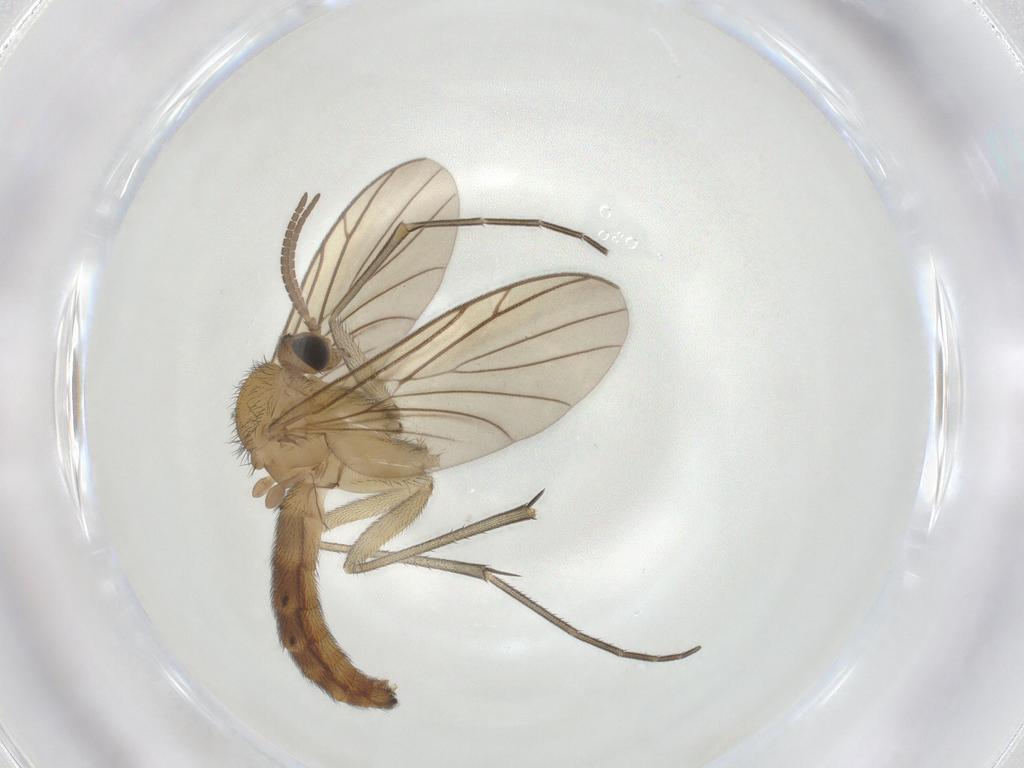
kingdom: Animalia
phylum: Arthropoda
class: Insecta
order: Diptera
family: Keroplatidae
